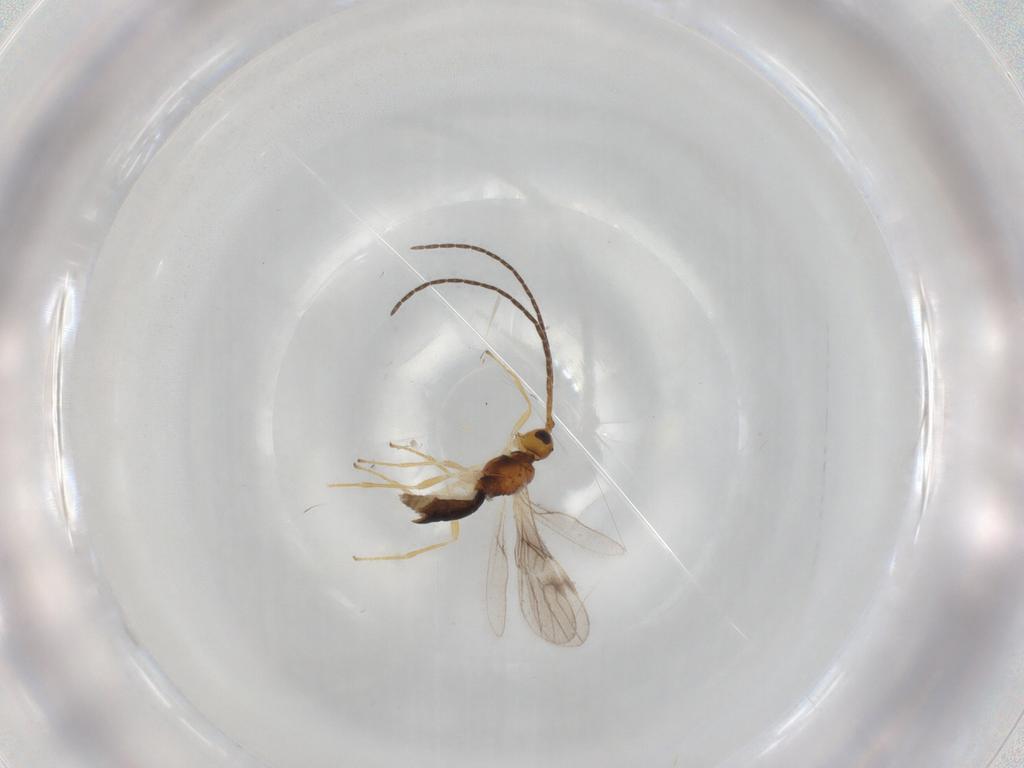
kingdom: Animalia
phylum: Arthropoda
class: Insecta
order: Hymenoptera
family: Braconidae
